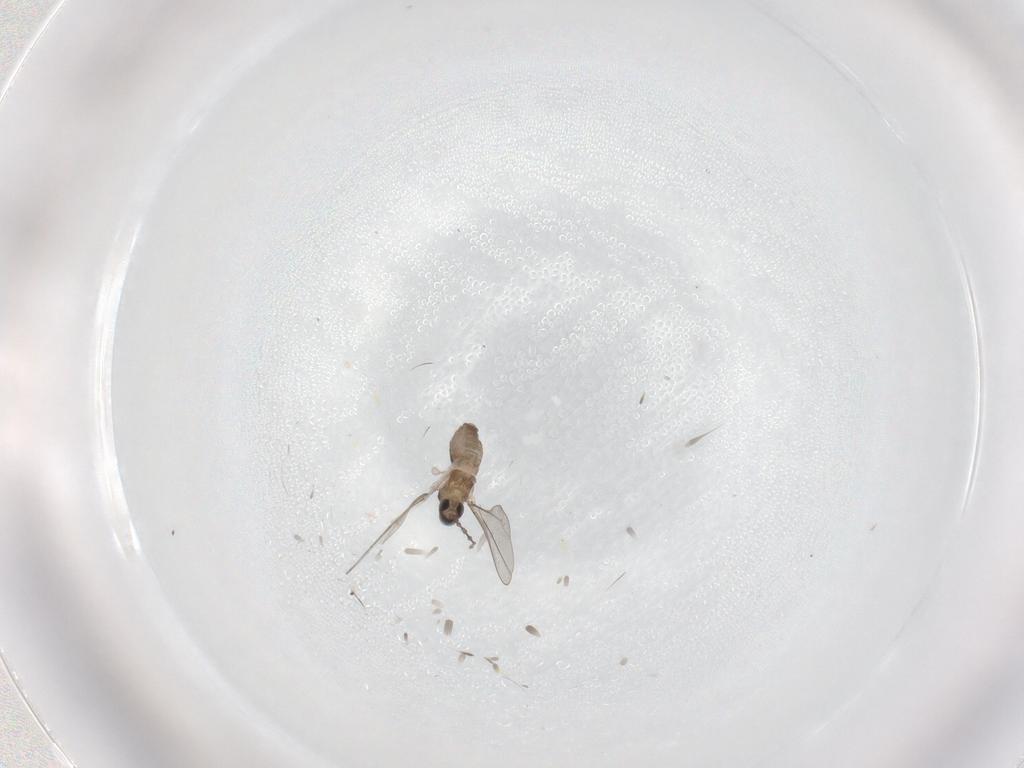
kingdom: Animalia
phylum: Arthropoda
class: Insecta
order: Diptera
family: Cecidomyiidae
